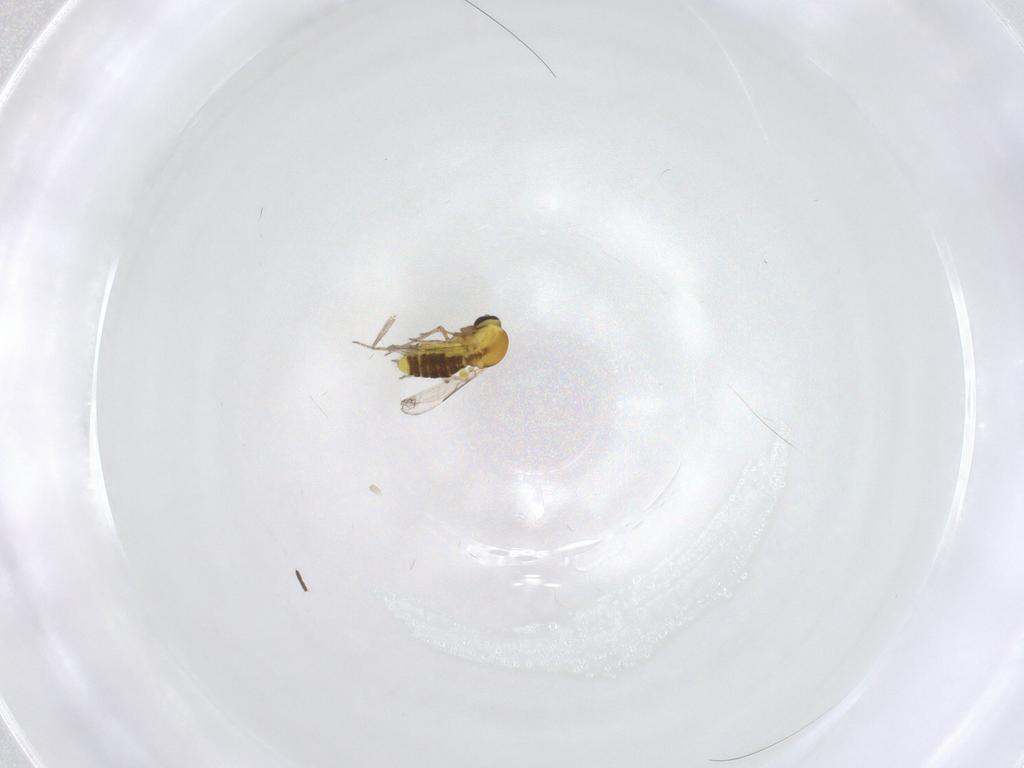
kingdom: Animalia
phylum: Arthropoda
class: Insecta
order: Diptera
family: Ceratopogonidae
